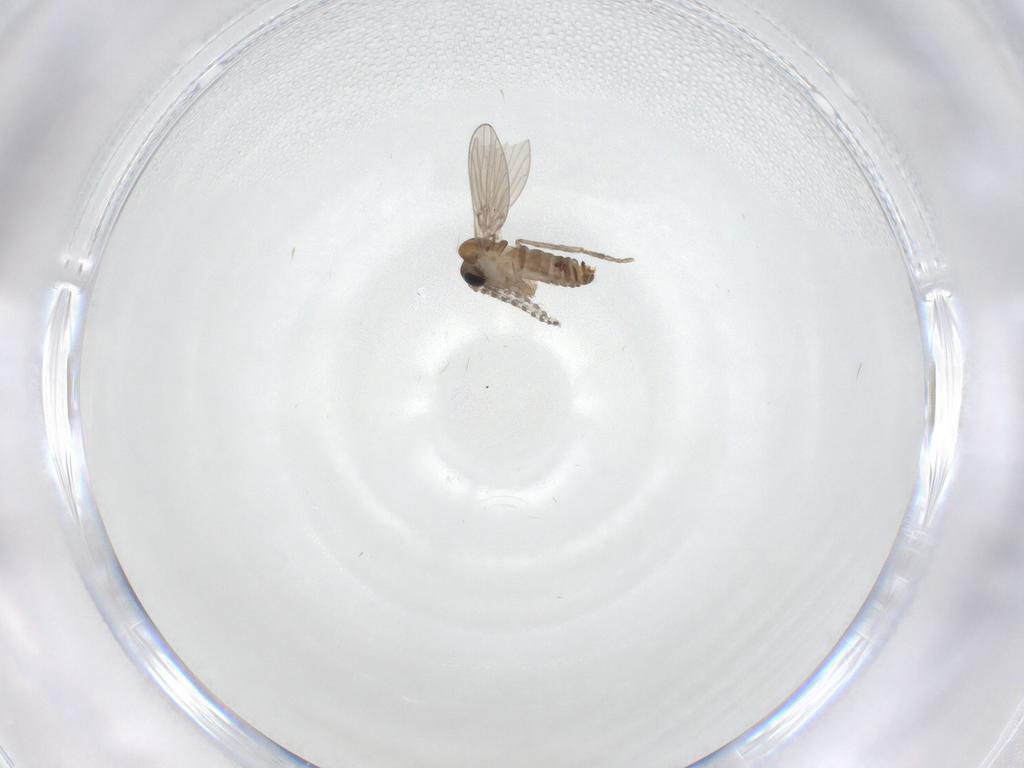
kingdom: Animalia
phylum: Arthropoda
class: Insecta
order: Diptera
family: Psychodidae
